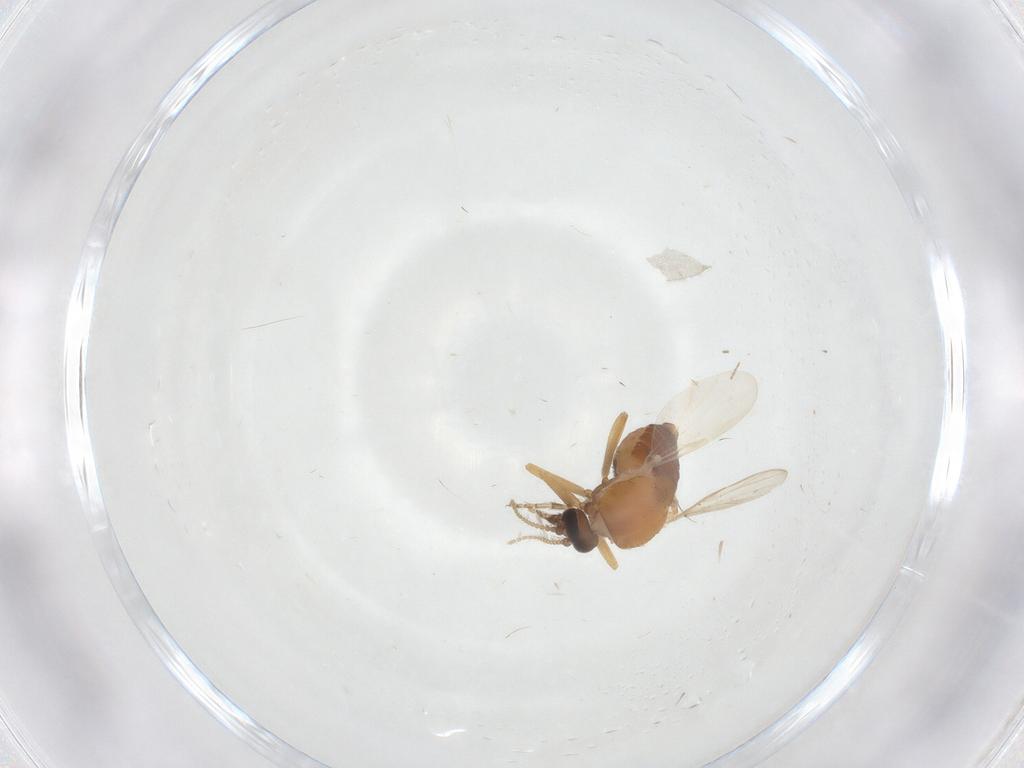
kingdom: Animalia
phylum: Arthropoda
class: Insecta
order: Diptera
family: Ceratopogonidae
